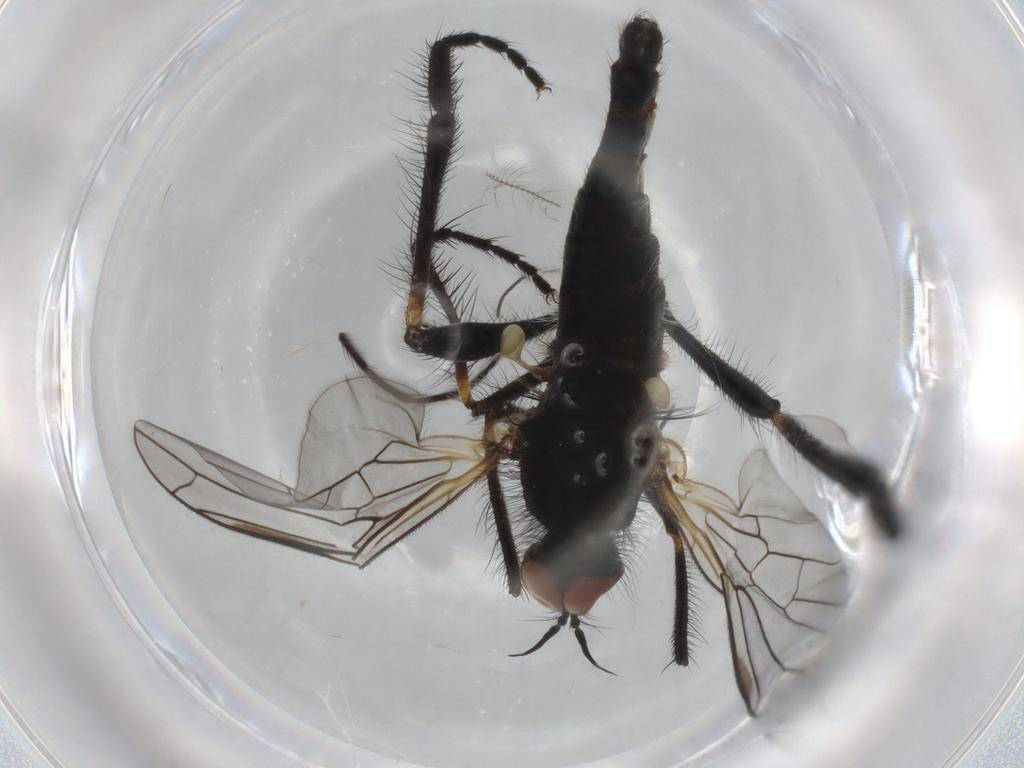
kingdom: Animalia
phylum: Arthropoda
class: Insecta
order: Diptera
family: Empididae
